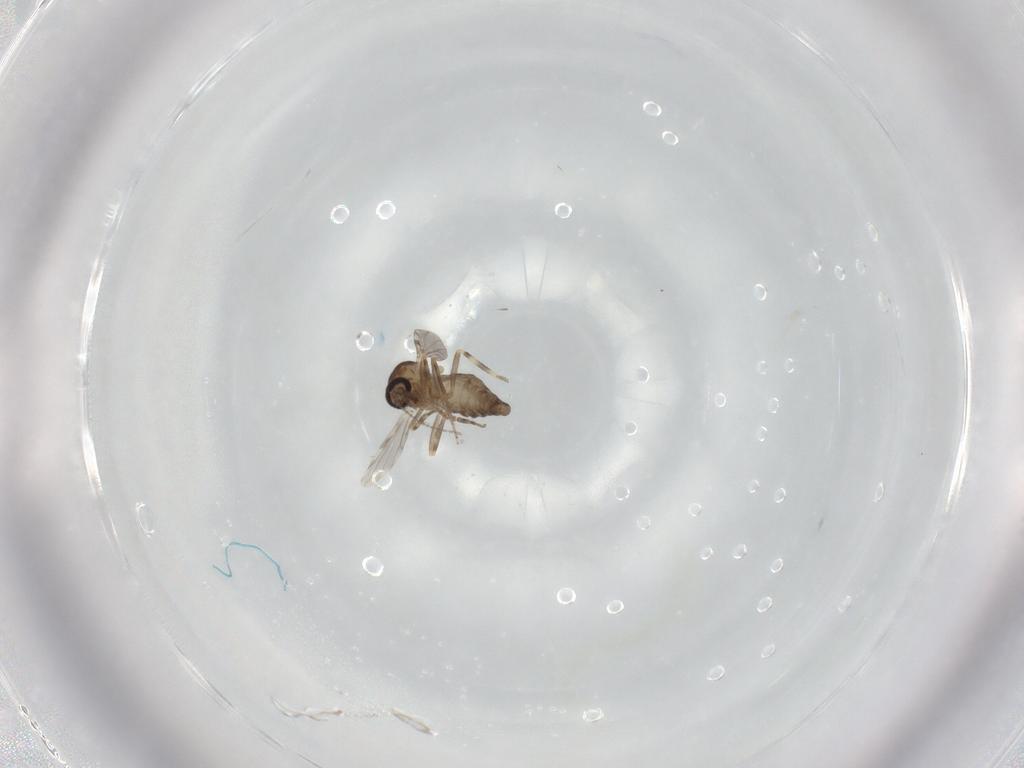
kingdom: Animalia
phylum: Arthropoda
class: Insecta
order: Diptera
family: Ceratopogonidae
